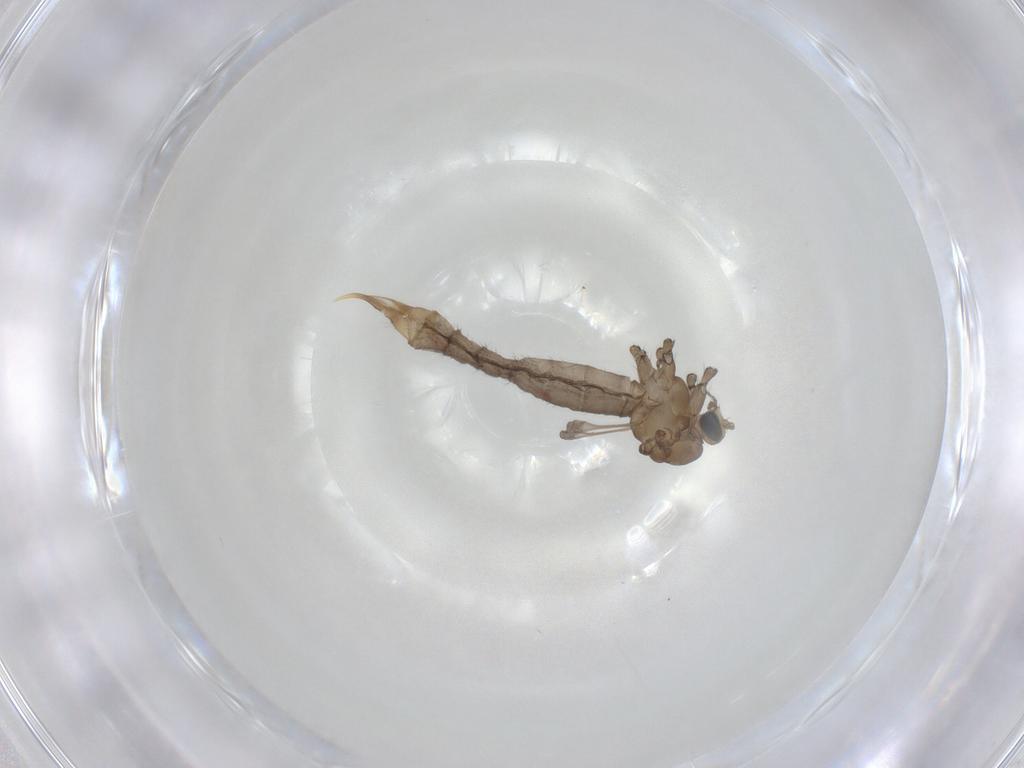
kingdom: Animalia
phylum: Arthropoda
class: Insecta
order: Diptera
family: Limoniidae
